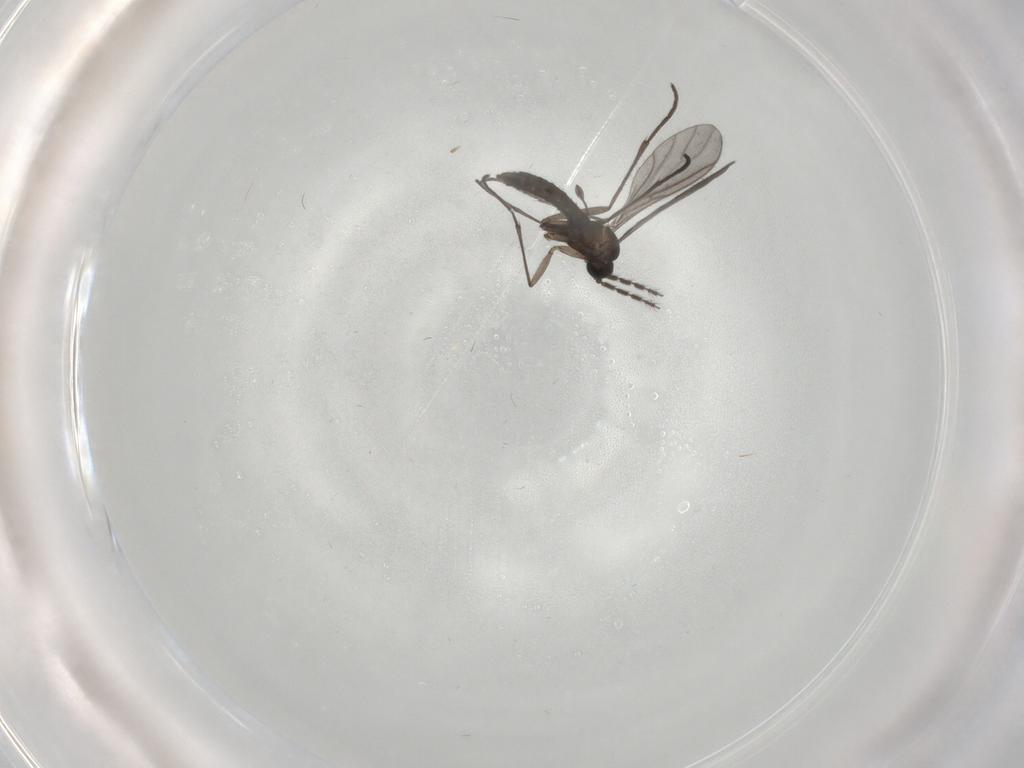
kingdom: Animalia
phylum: Arthropoda
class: Insecta
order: Diptera
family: Sciaridae
